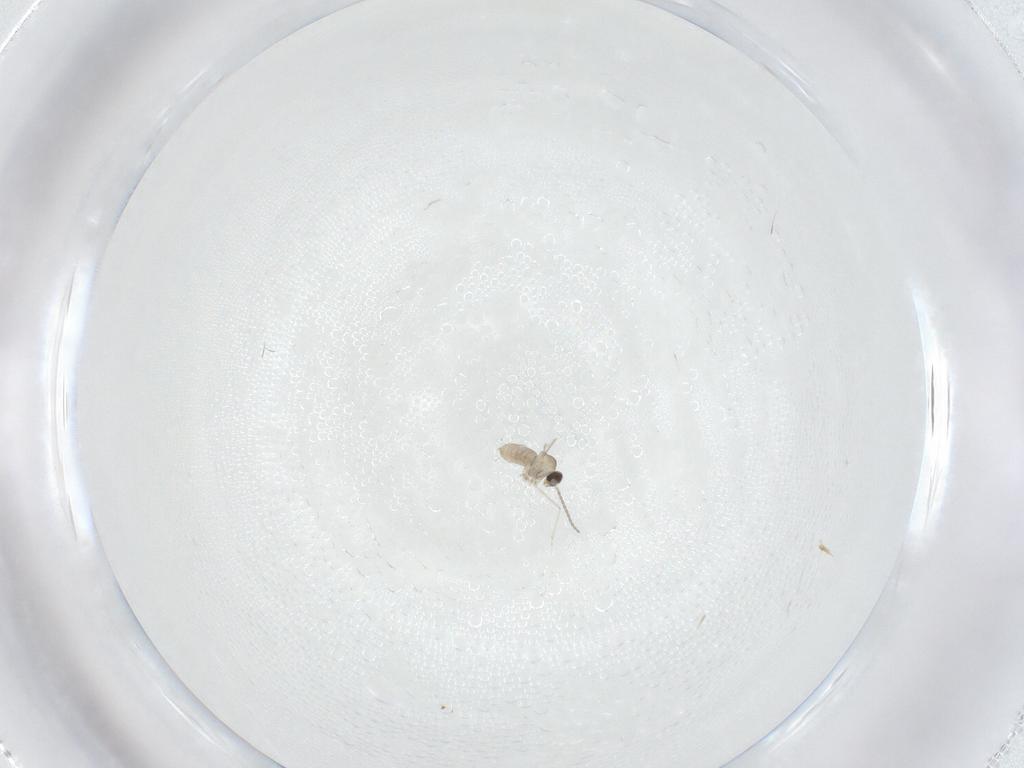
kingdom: Animalia
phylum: Arthropoda
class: Insecta
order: Diptera
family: Cecidomyiidae
